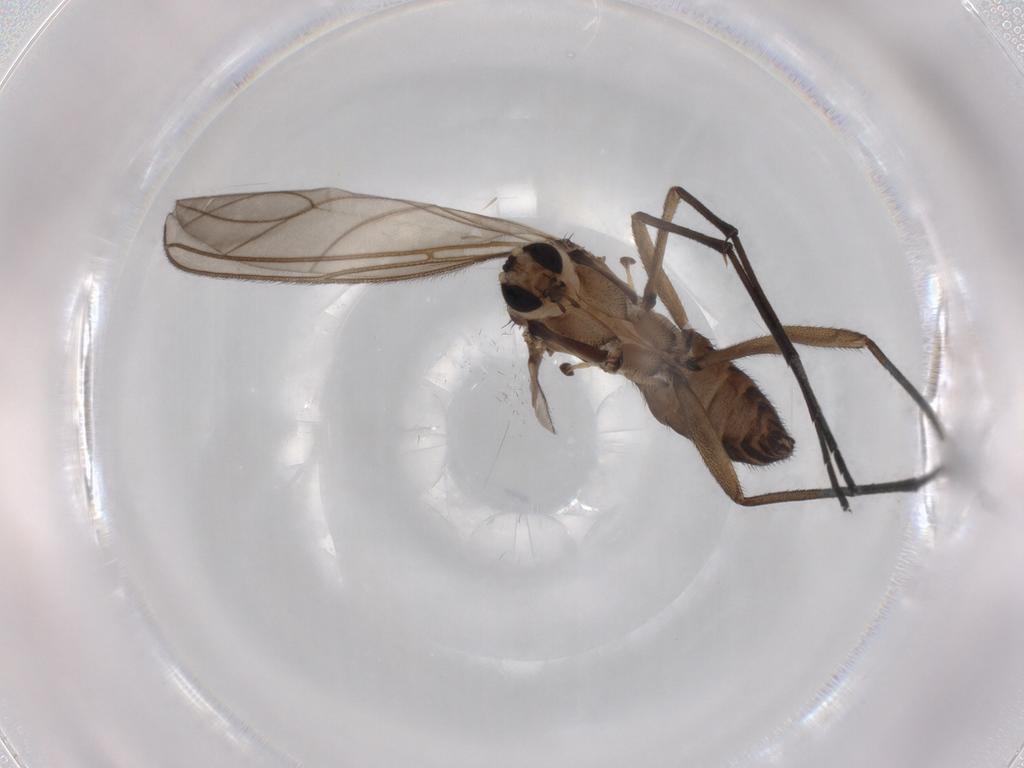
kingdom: Animalia
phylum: Arthropoda
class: Insecta
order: Diptera
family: Sciaridae
